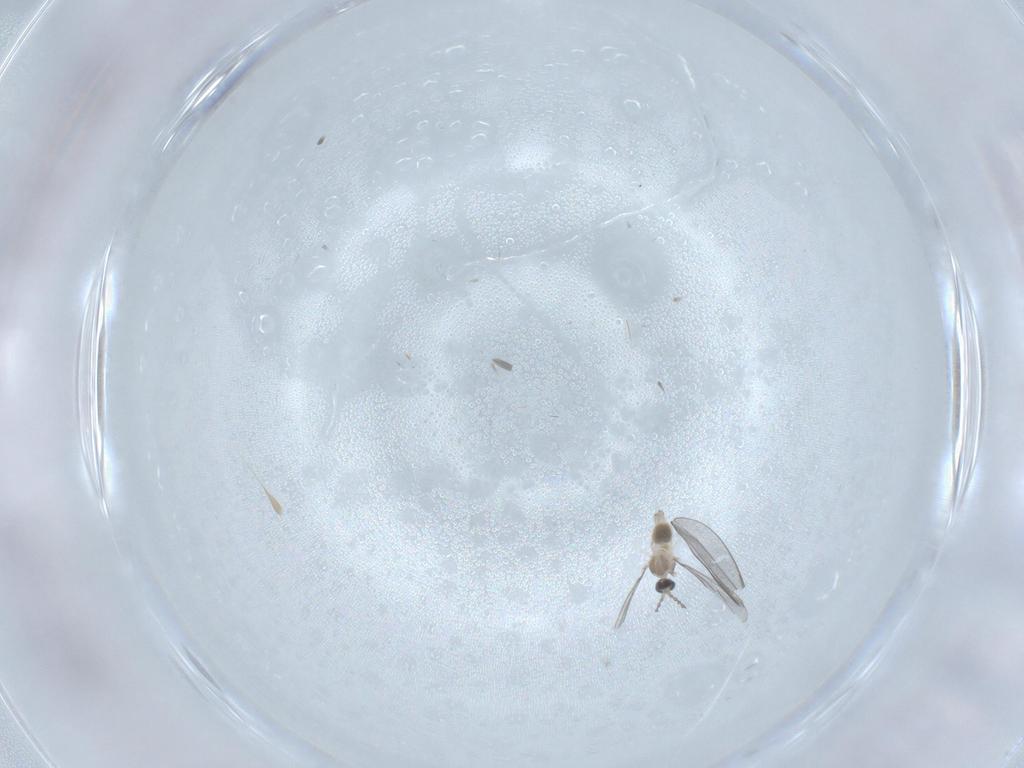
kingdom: Animalia
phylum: Arthropoda
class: Insecta
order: Diptera
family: Cecidomyiidae
